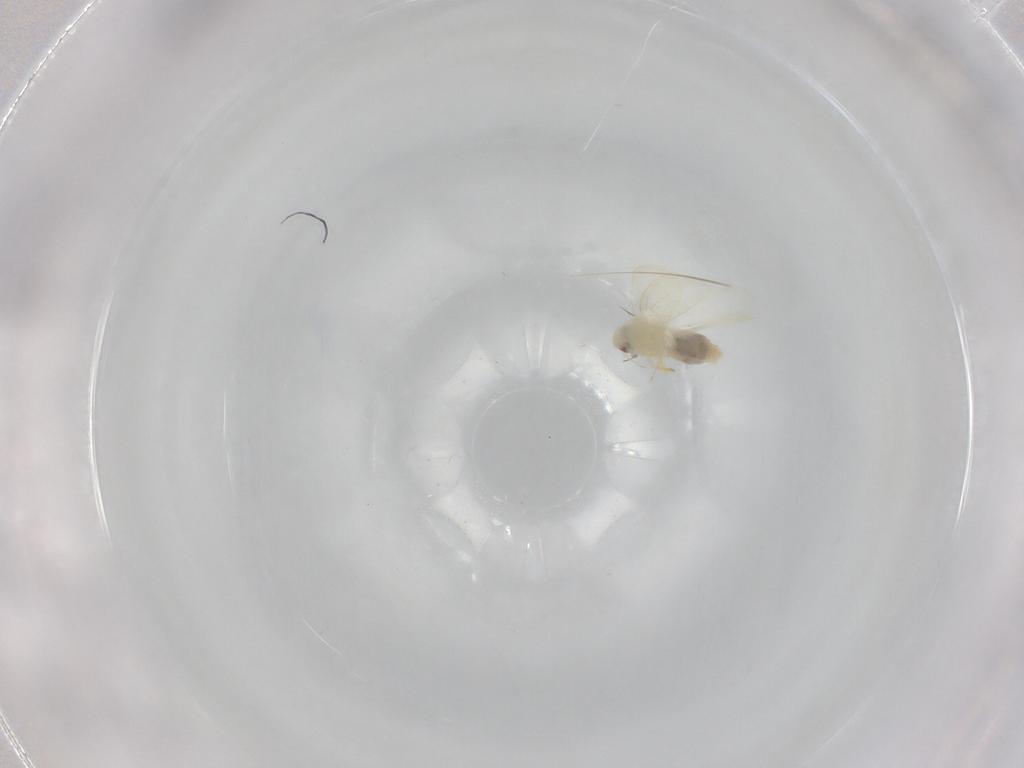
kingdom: Animalia
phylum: Arthropoda
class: Insecta
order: Hemiptera
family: Aleyrodidae
